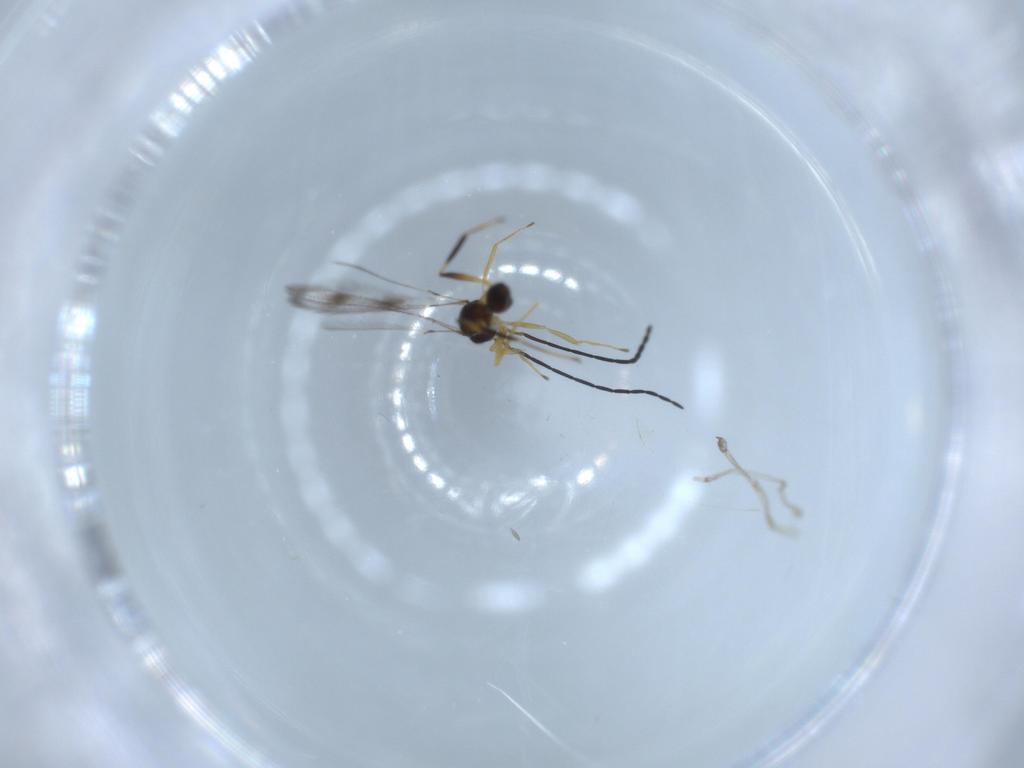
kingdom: Animalia
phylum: Arthropoda
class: Insecta
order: Hymenoptera
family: Mymaridae
